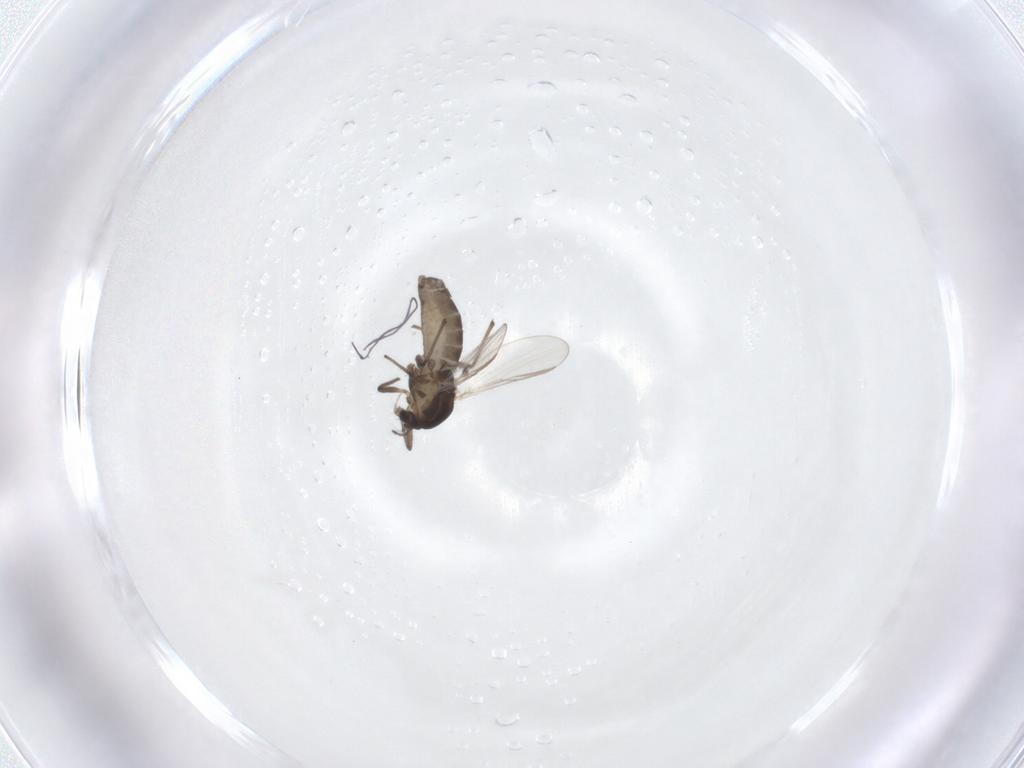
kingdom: Animalia
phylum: Arthropoda
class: Insecta
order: Diptera
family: Chironomidae
